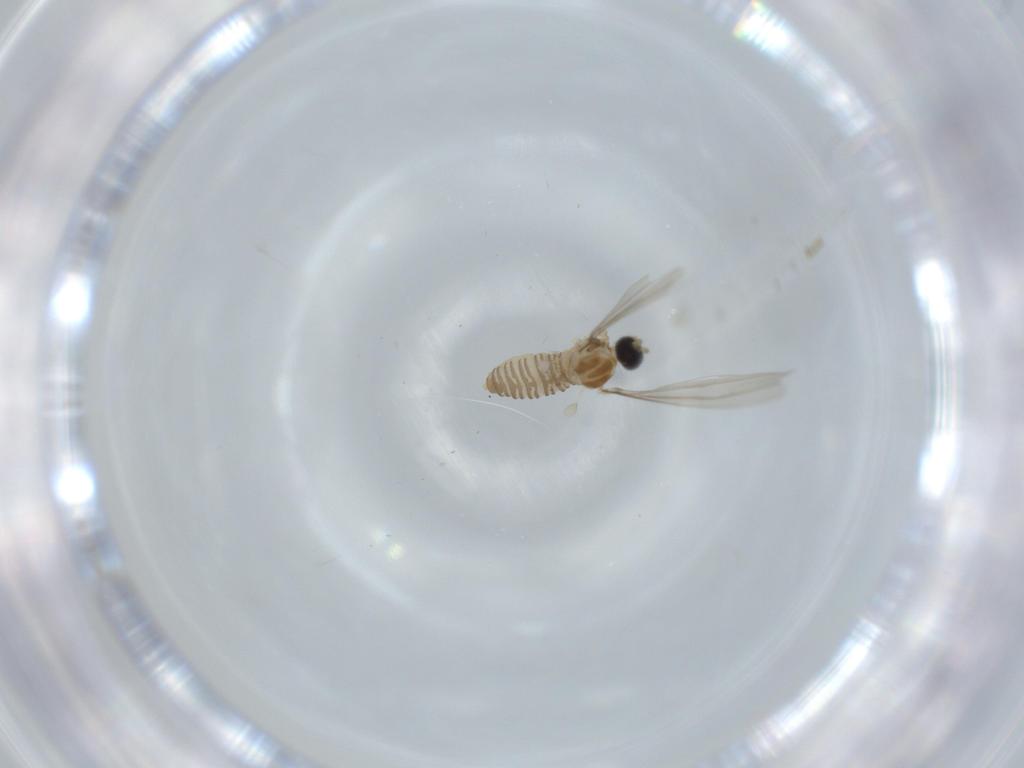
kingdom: Animalia
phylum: Arthropoda
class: Insecta
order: Diptera
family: Cecidomyiidae
